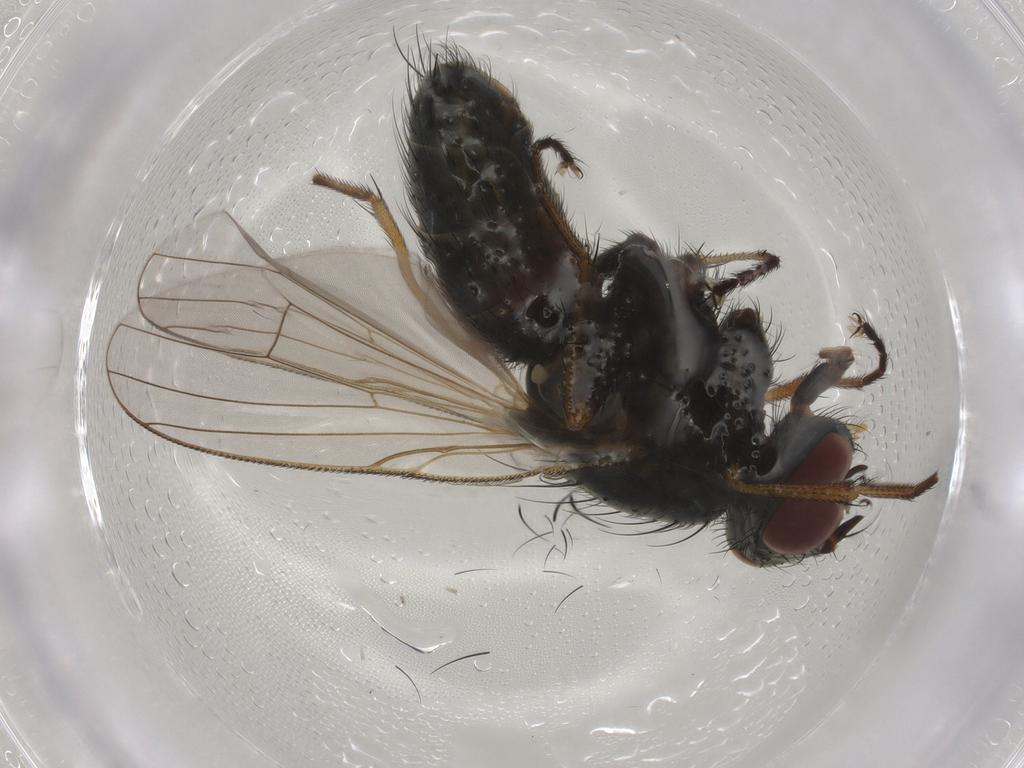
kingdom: Animalia
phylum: Arthropoda
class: Insecta
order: Diptera
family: Muscidae
